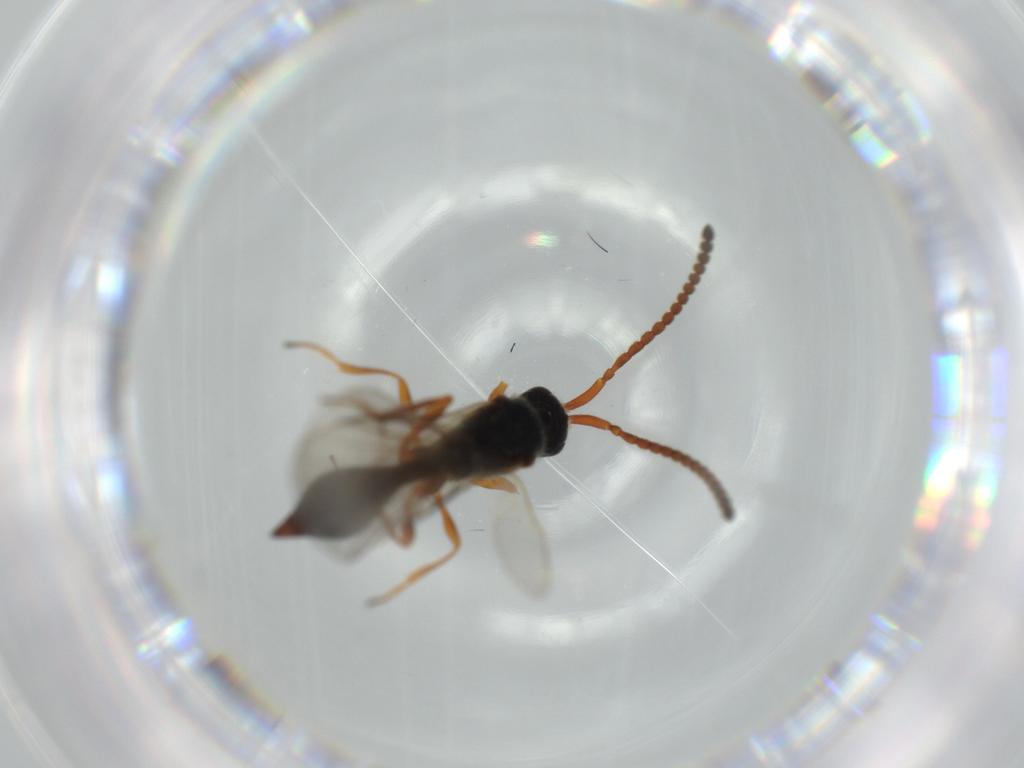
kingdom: Animalia
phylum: Arthropoda
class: Insecta
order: Hymenoptera
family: Diapriidae
